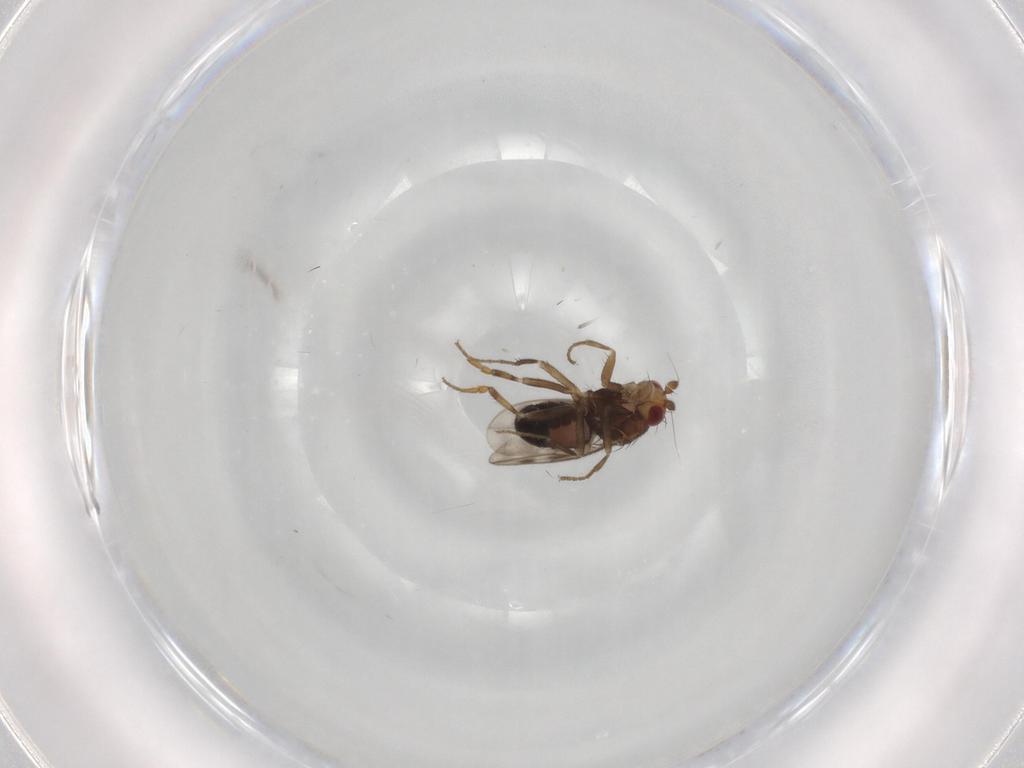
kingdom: Animalia
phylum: Arthropoda
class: Insecta
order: Diptera
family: Sphaeroceridae
